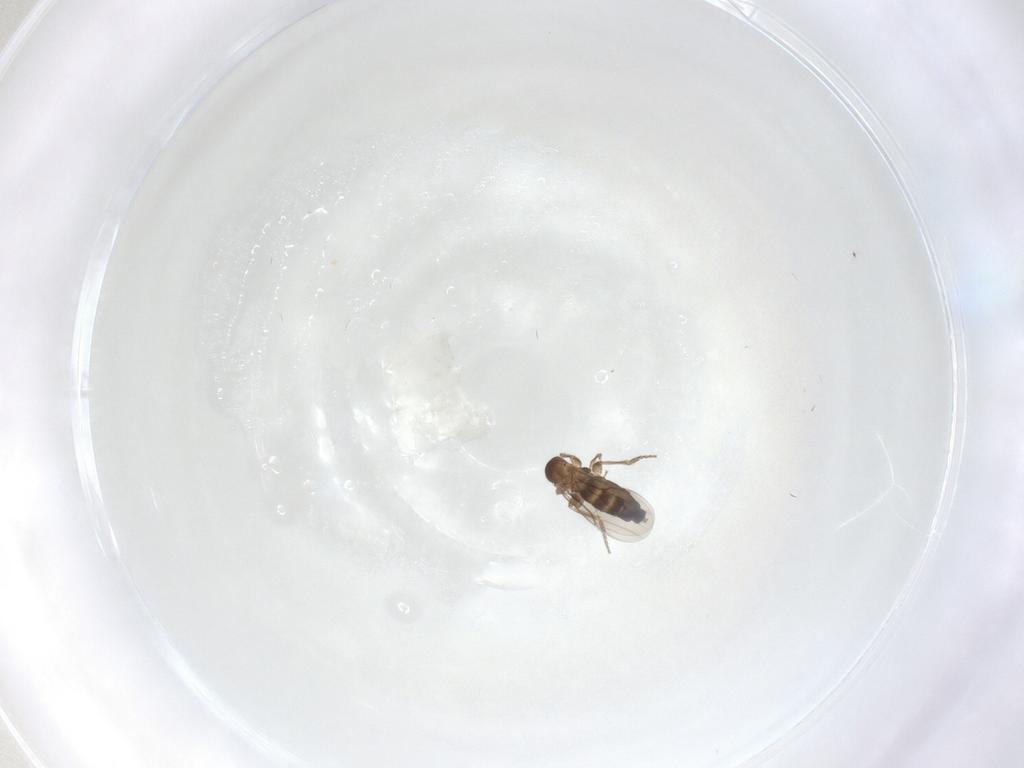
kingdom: Animalia
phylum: Arthropoda
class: Insecta
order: Diptera
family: Phoridae
